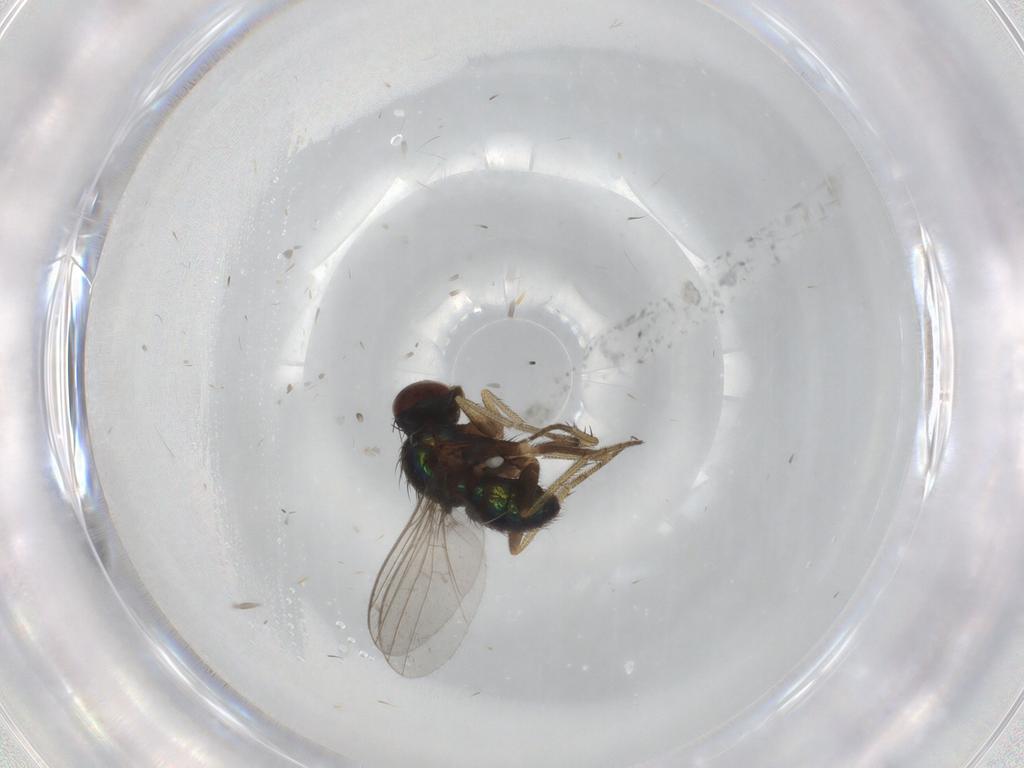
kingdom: Animalia
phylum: Arthropoda
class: Insecta
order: Diptera
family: Dolichopodidae
